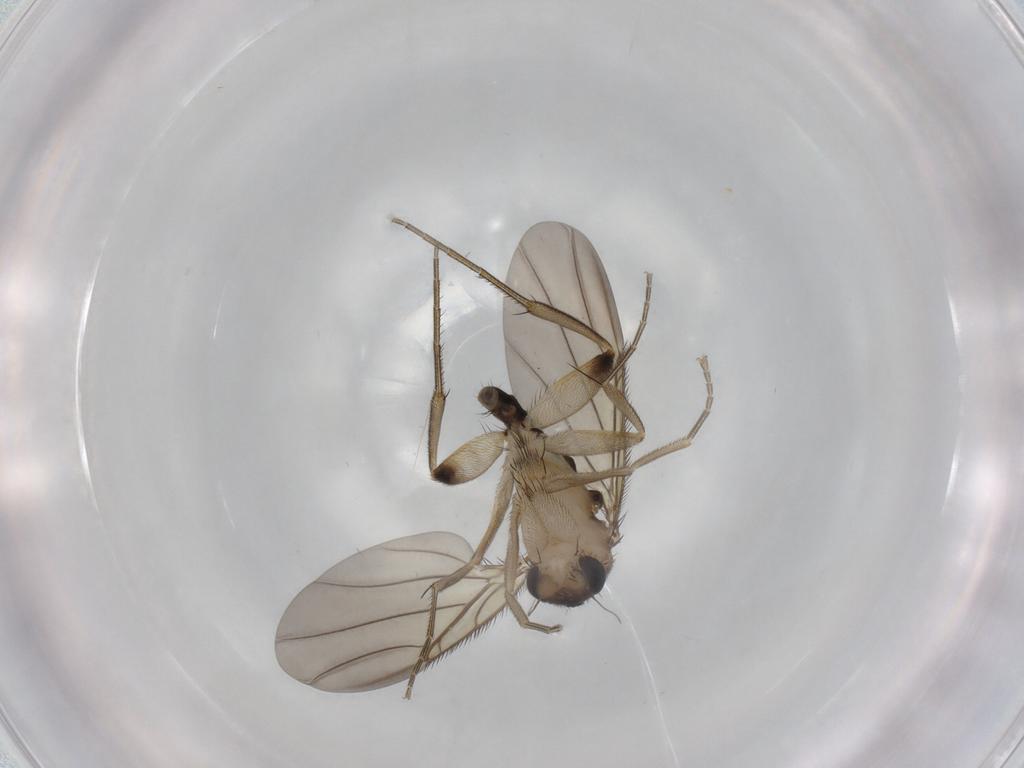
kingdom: Animalia
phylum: Arthropoda
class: Insecta
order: Diptera
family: Phoridae
